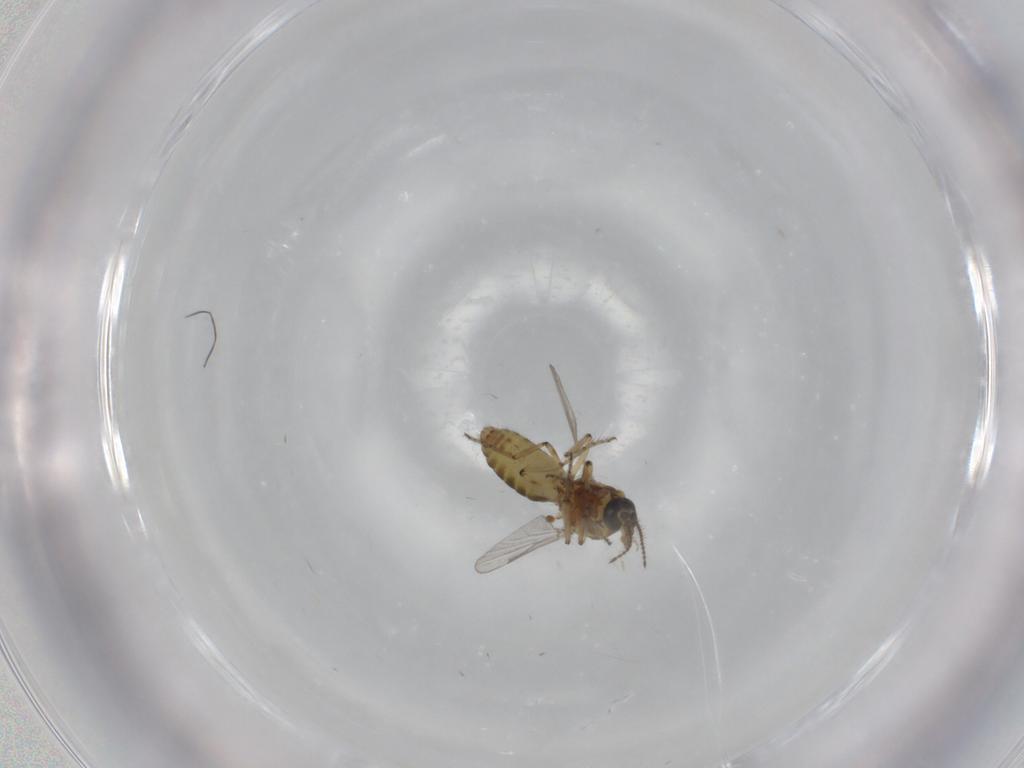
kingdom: Animalia
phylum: Arthropoda
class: Insecta
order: Diptera
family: Ceratopogonidae
